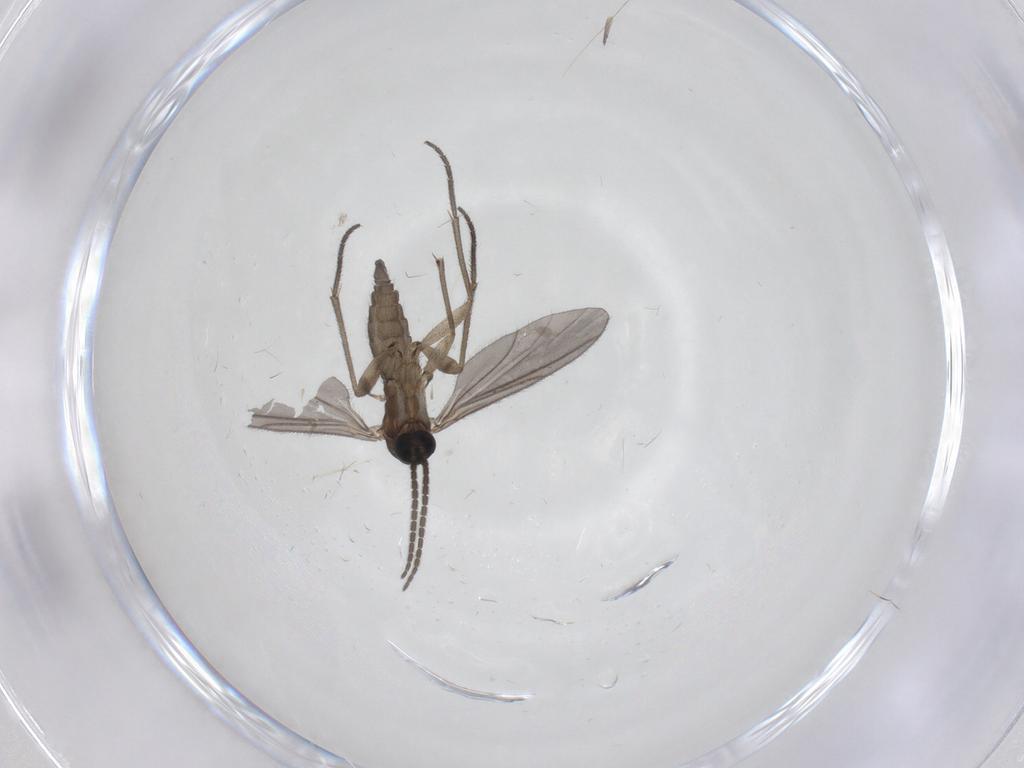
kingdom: Animalia
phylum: Arthropoda
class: Insecta
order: Diptera
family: Sciaridae
